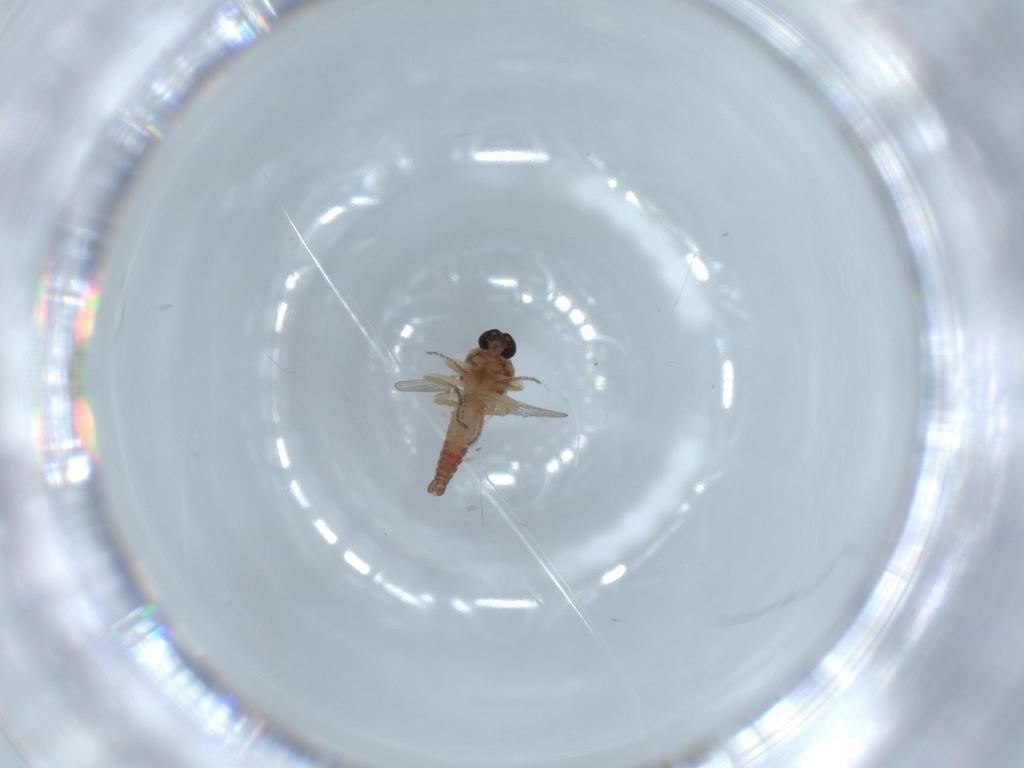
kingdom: Animalia
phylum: Arthropoda
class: Insecta
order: Diptera
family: Ceratopogonidae
